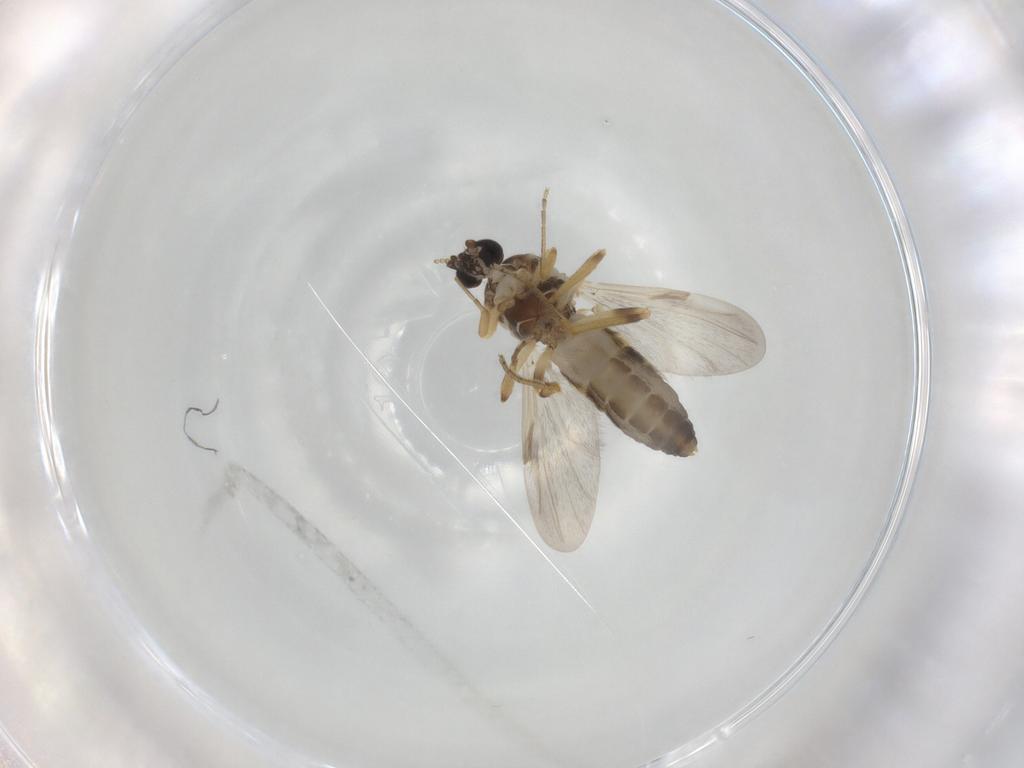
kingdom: Animalia
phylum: Arthropoda
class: Insecta
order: Diptera
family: Ceratopogonidae
